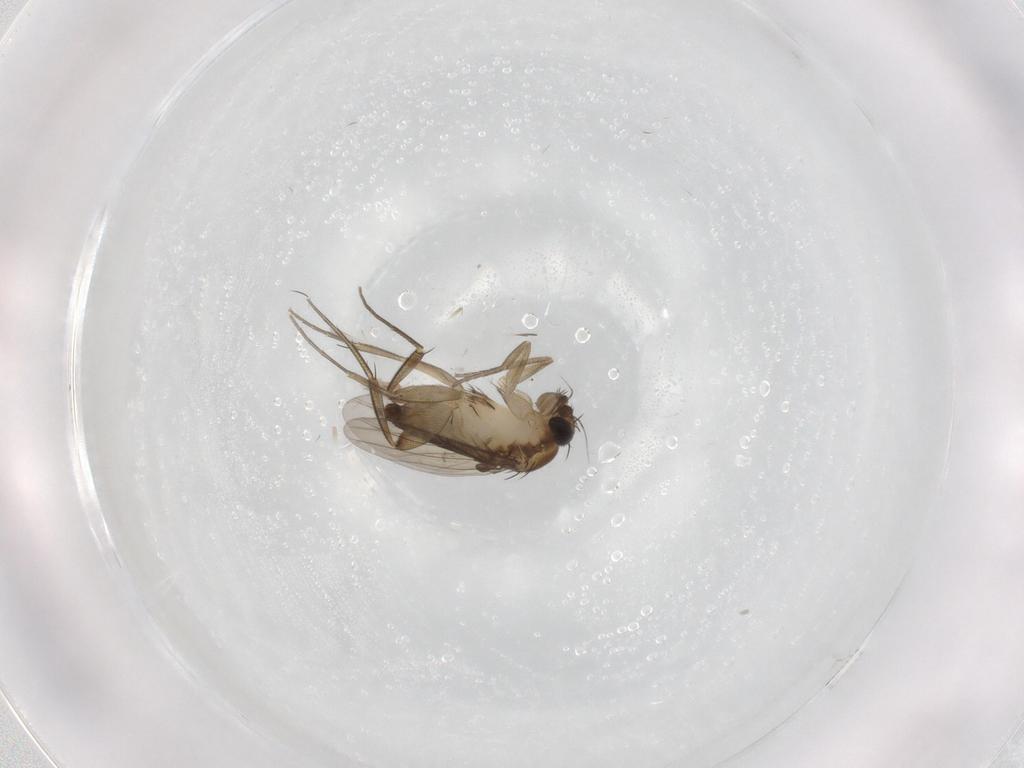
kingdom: Animalia
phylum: Arthropoda
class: Insecta
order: Diptera
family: Phoridae
